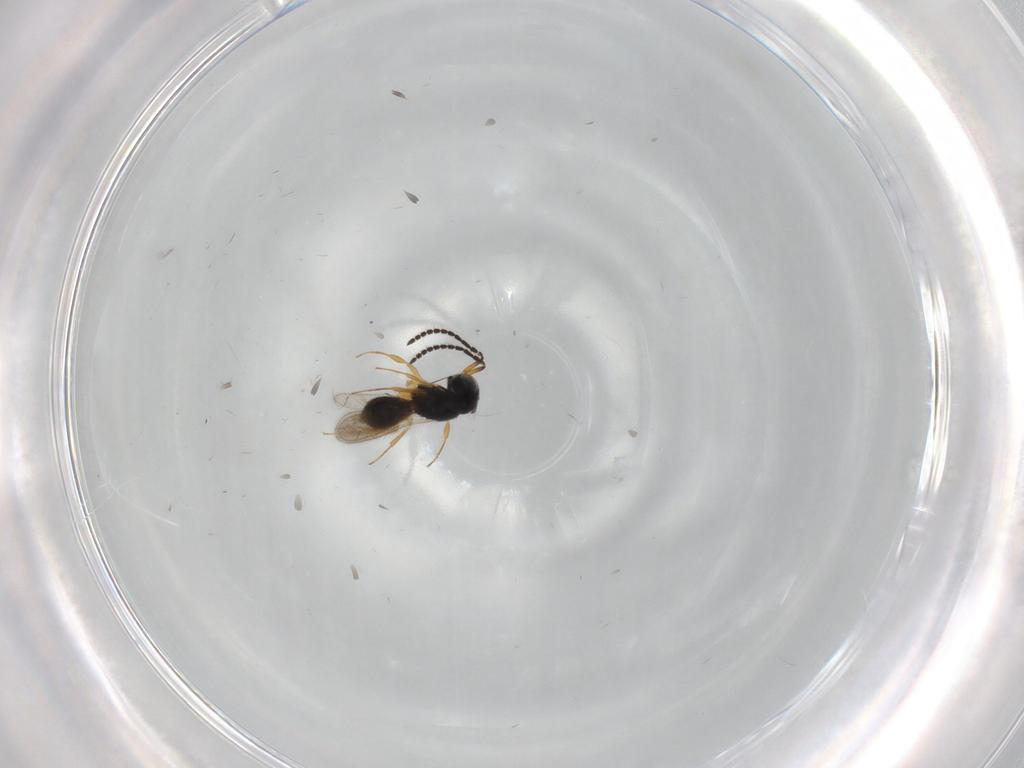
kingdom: Animalia
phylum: Arthropoda
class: Insecta
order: Hymenoptera
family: Scelionidae
